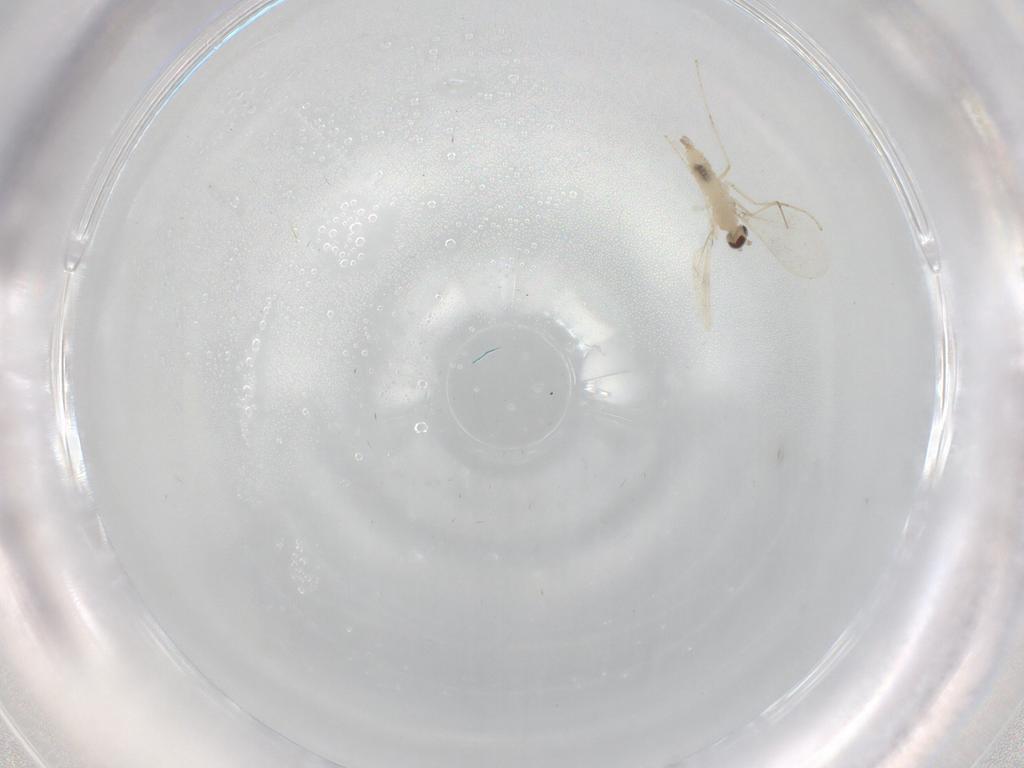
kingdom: Animalia
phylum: Arthropoda
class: Insecta
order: Diptera
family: Cecidomyiidae
